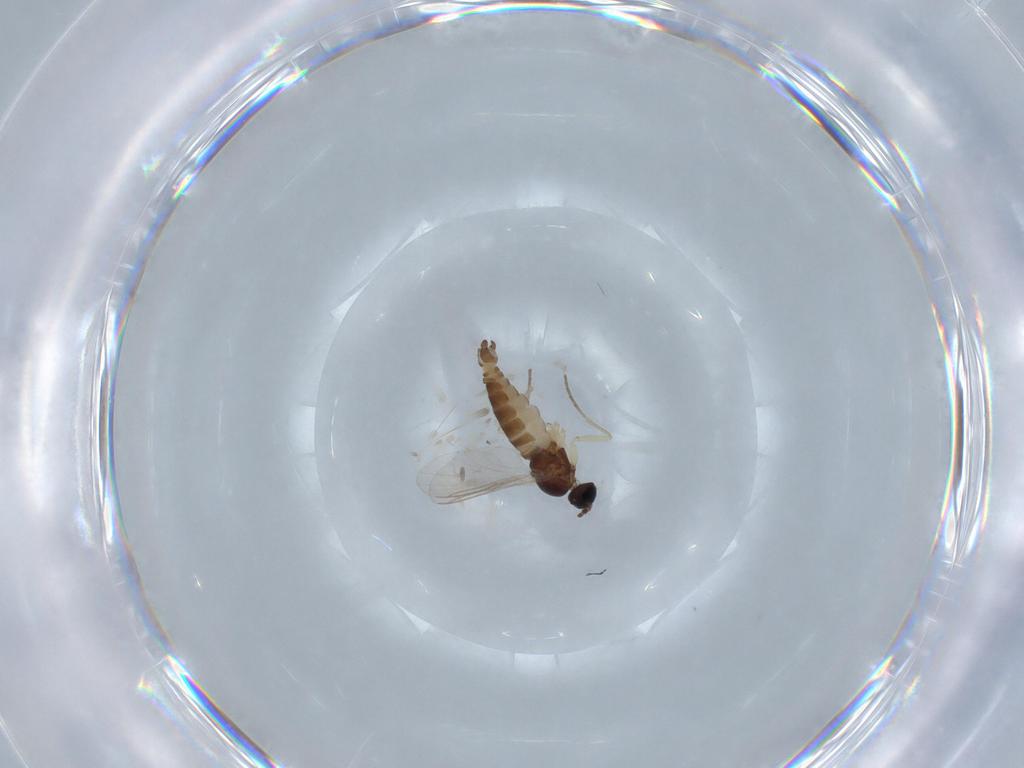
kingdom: Animalia
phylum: Arthropoda
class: Insecta
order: Diptera
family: Sciaridae
